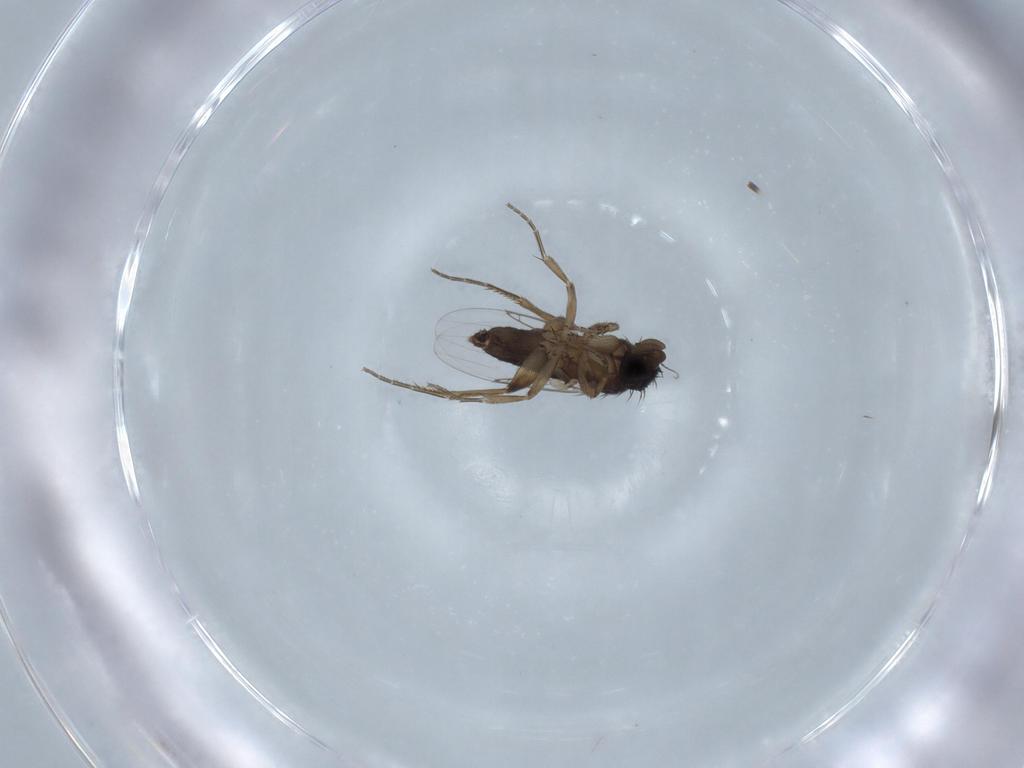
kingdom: Animalia
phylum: Arthropoda
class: Insecta
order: Diptera
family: Phoridae
